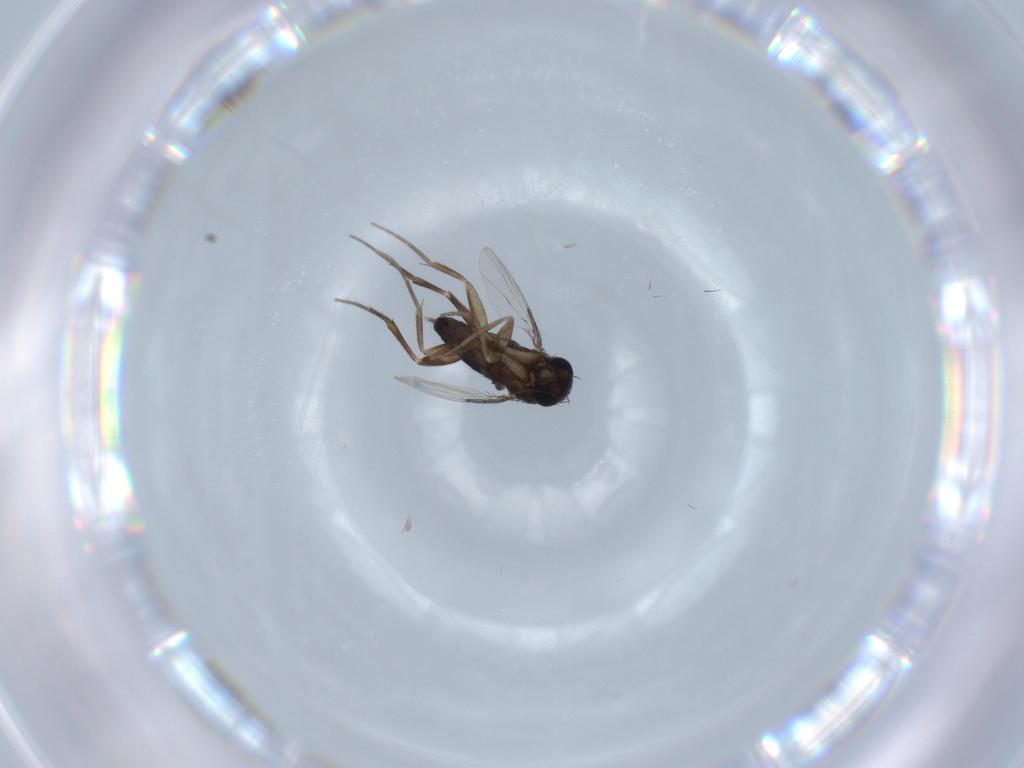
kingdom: Animalia
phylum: Arthropoda
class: Insecta
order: Diptera
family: Phoridae
